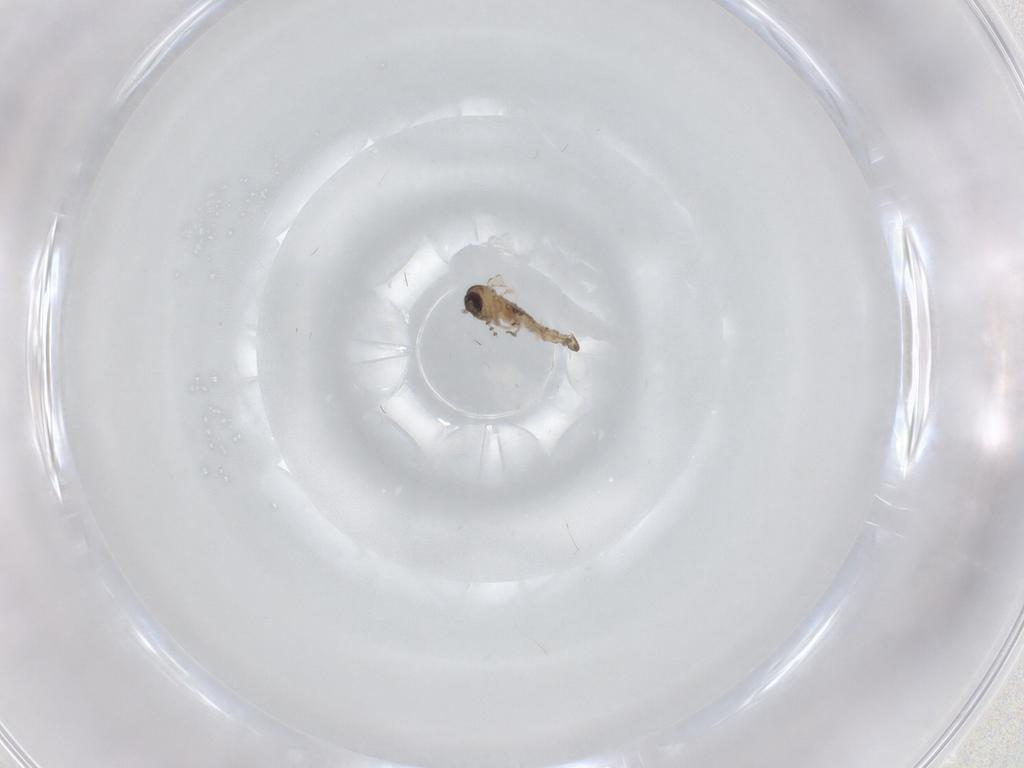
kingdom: Animalia
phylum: Arthropoda
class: Insecta
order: Diptera
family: Psychodidae
